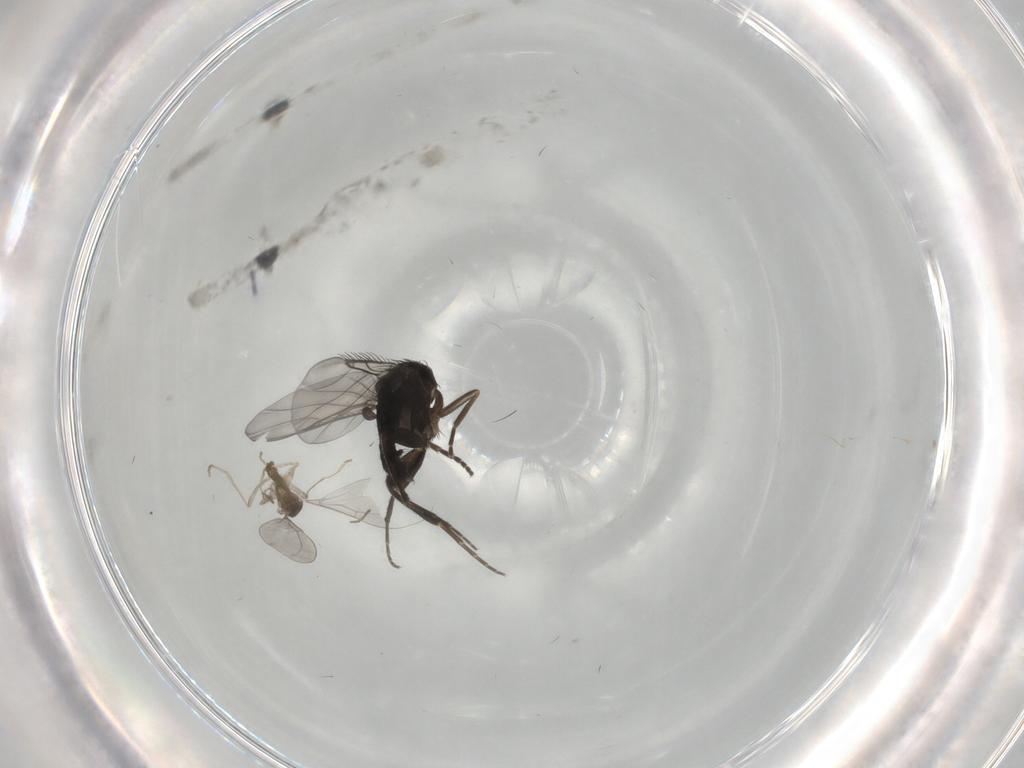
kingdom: Animalia
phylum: Arthropoda
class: Insecta
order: Diptera
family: Phoridae
